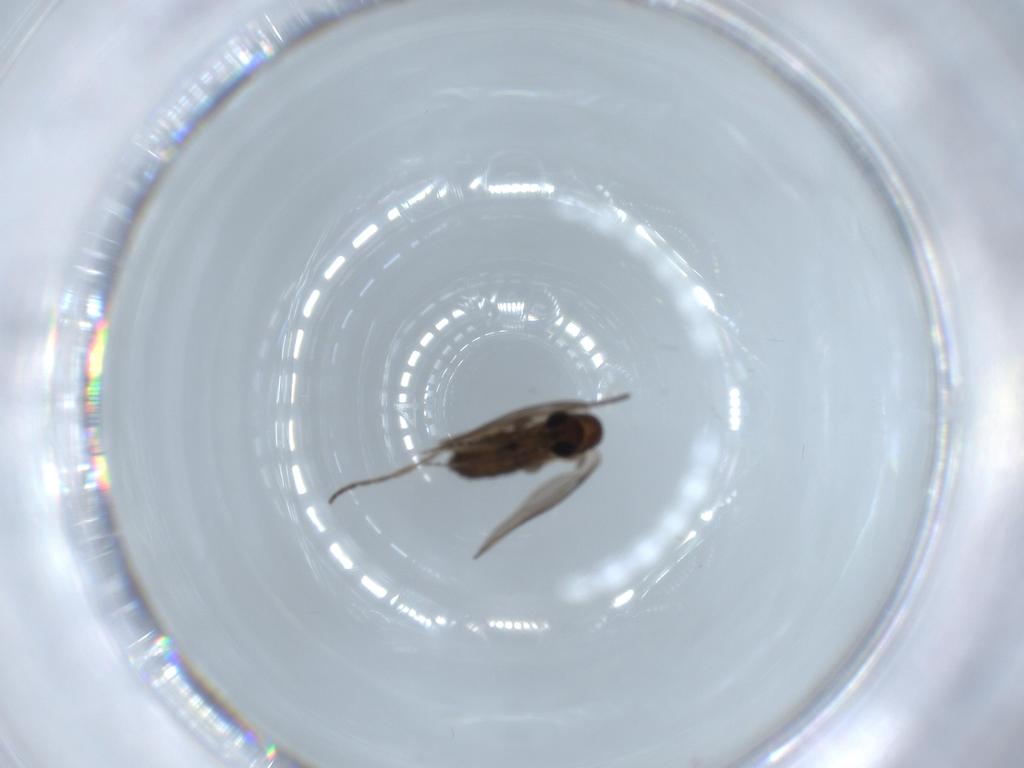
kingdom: Animalia
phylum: Arthropoda
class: Insecta
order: Diptera
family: Psychodidae
